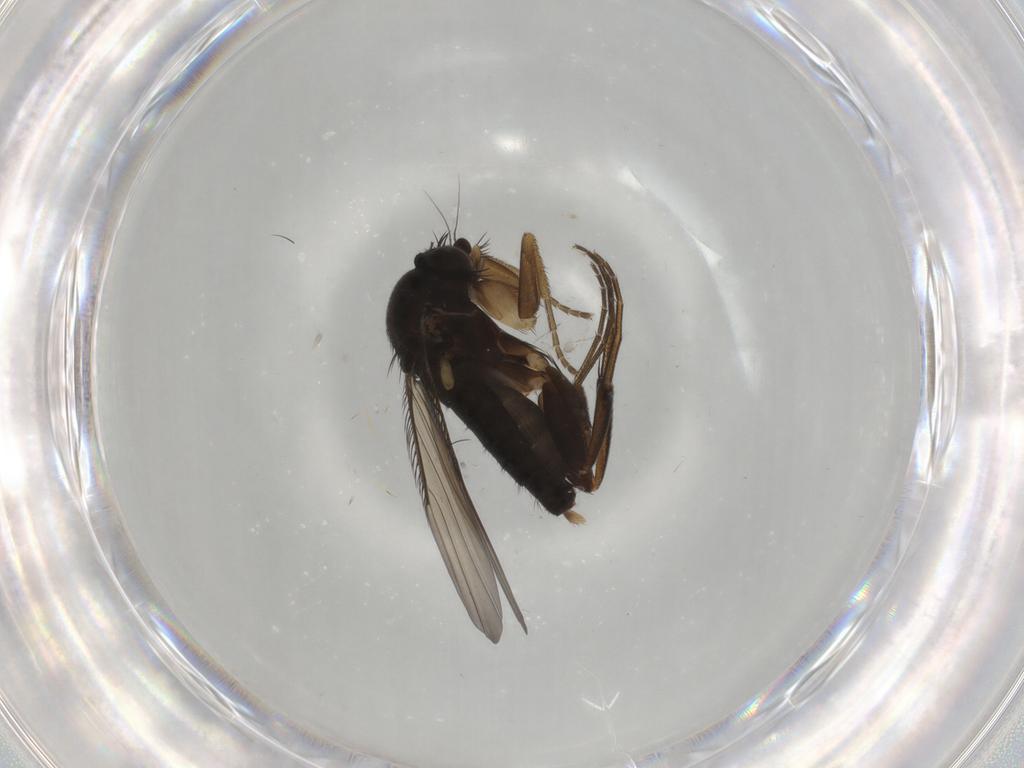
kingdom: Animalia
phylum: Arthropoda
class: Insecta
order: Diptera
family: Phoridae
